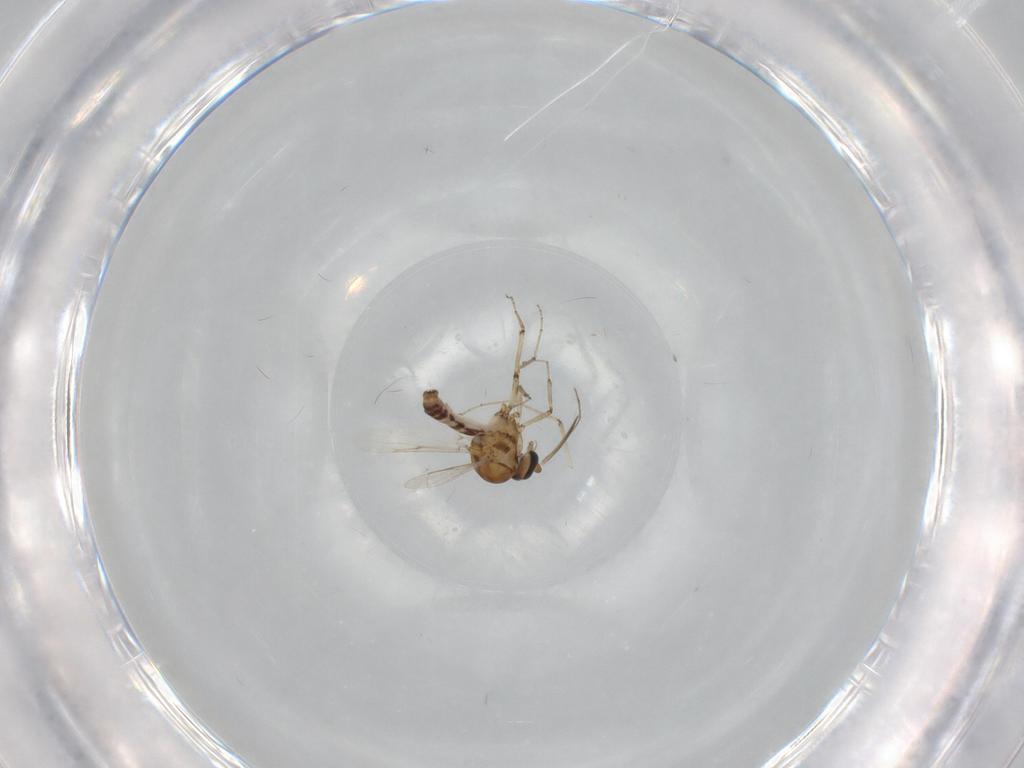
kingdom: Animalia
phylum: Arthropoda
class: Insecta
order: Diptera
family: Ceratopogonidae
